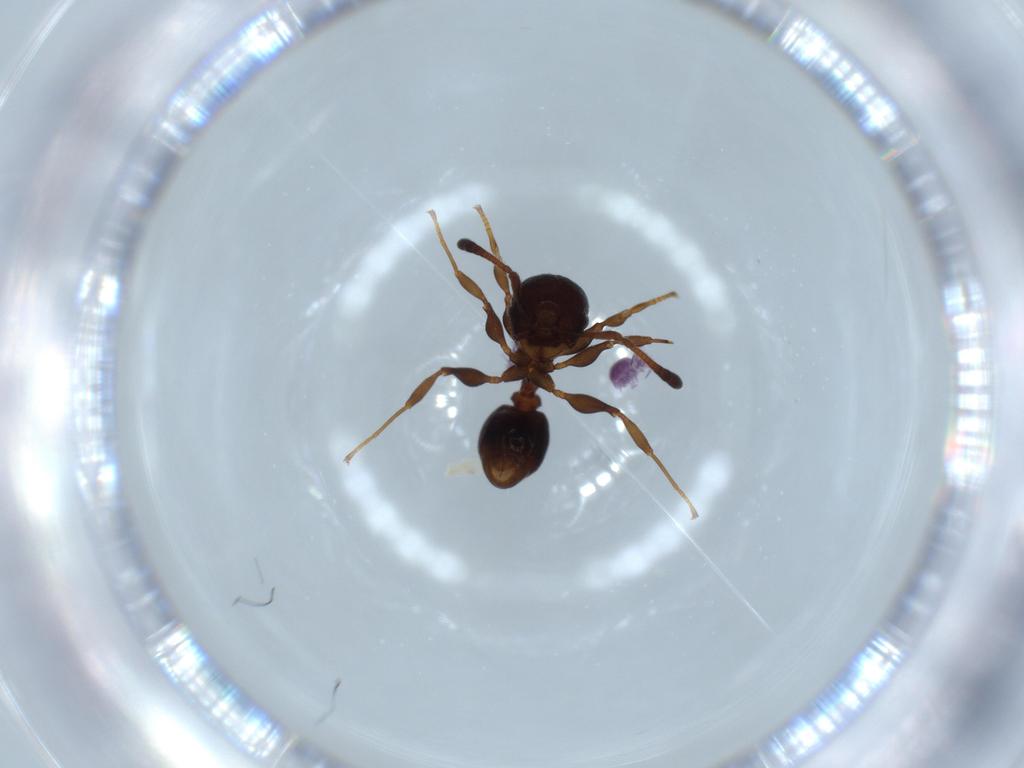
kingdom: Animalia
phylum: Arthropoda
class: Collembola
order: Symphypleona
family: Sminthurididae
